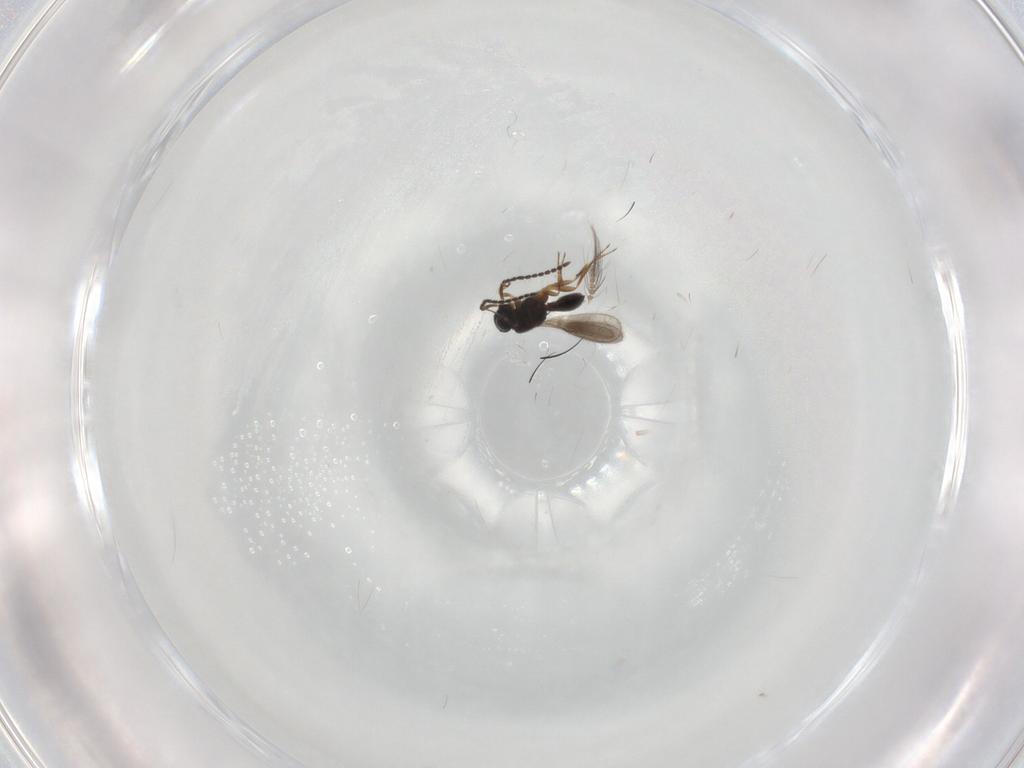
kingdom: Animalia
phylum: Arthropoda
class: Insecta
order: Hymenoptera
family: Scelionidae
